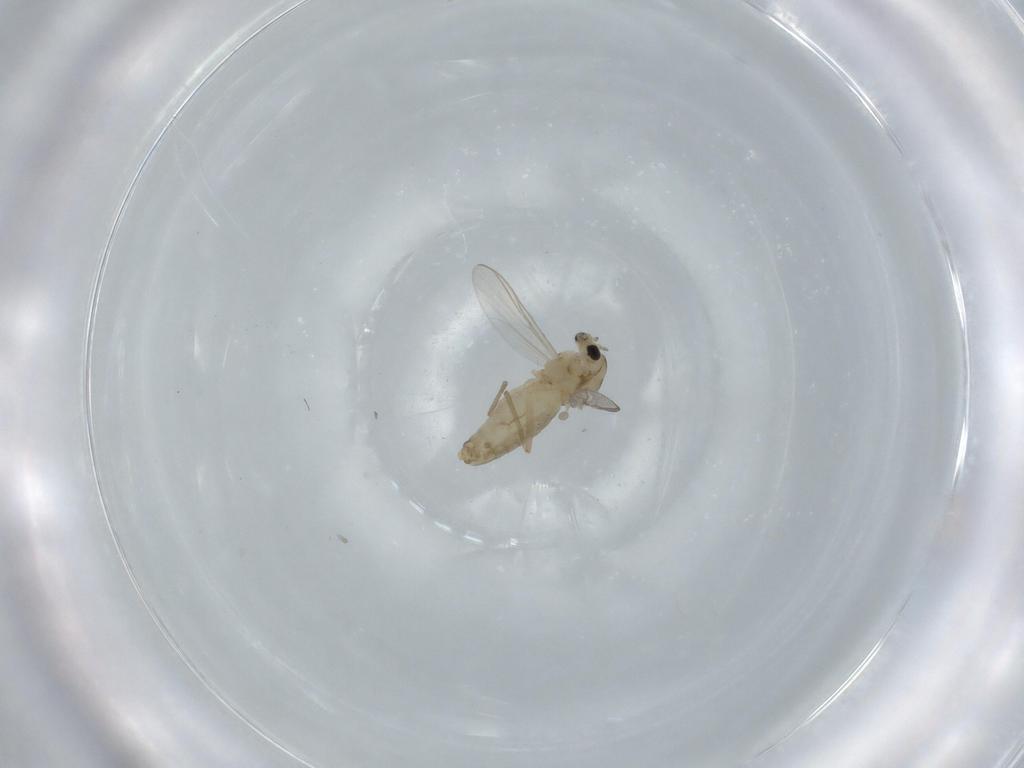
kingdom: Animalia
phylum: Arthropoda
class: Insecta
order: Diptera
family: Chironomidae
